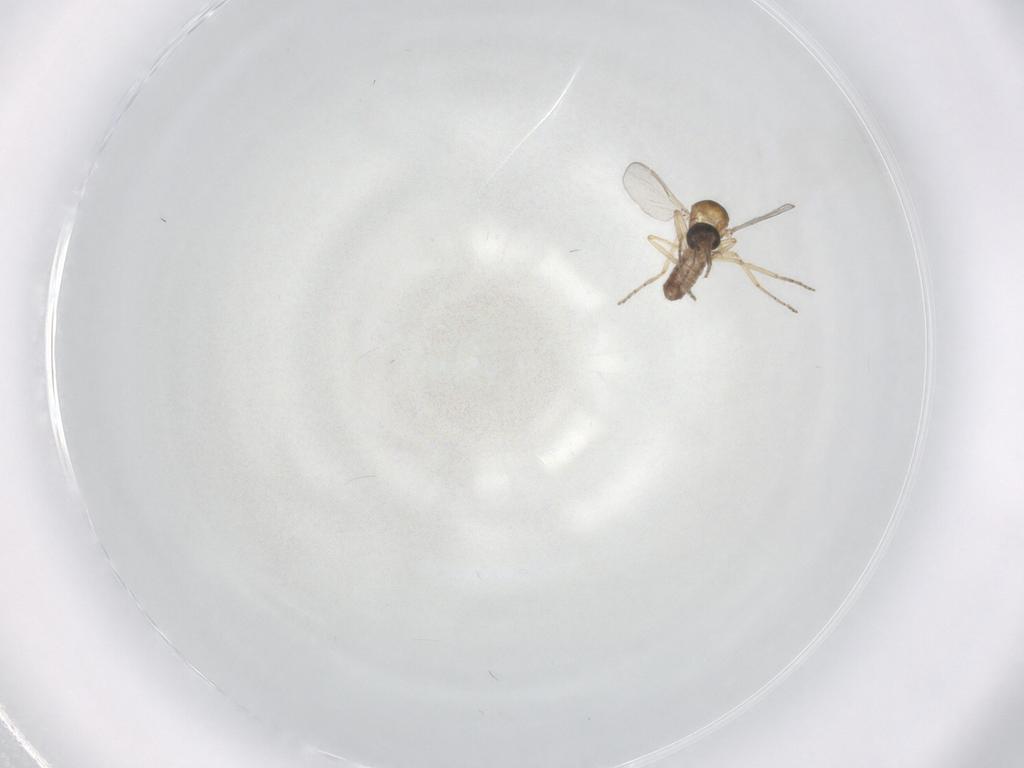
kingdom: Animalia
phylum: Arthropoda
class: Insecta
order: Diptera
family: Ceratopogonidae
